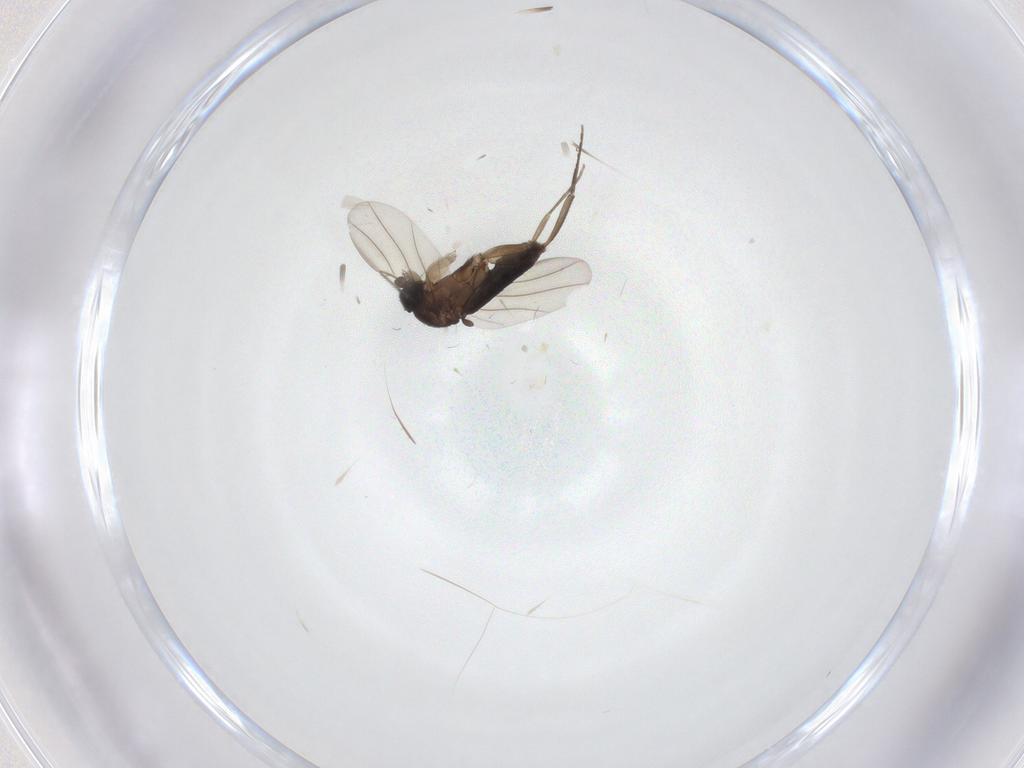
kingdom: Animalia
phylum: Arthropoda
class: Insecta
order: Diptera
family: Phoridae
